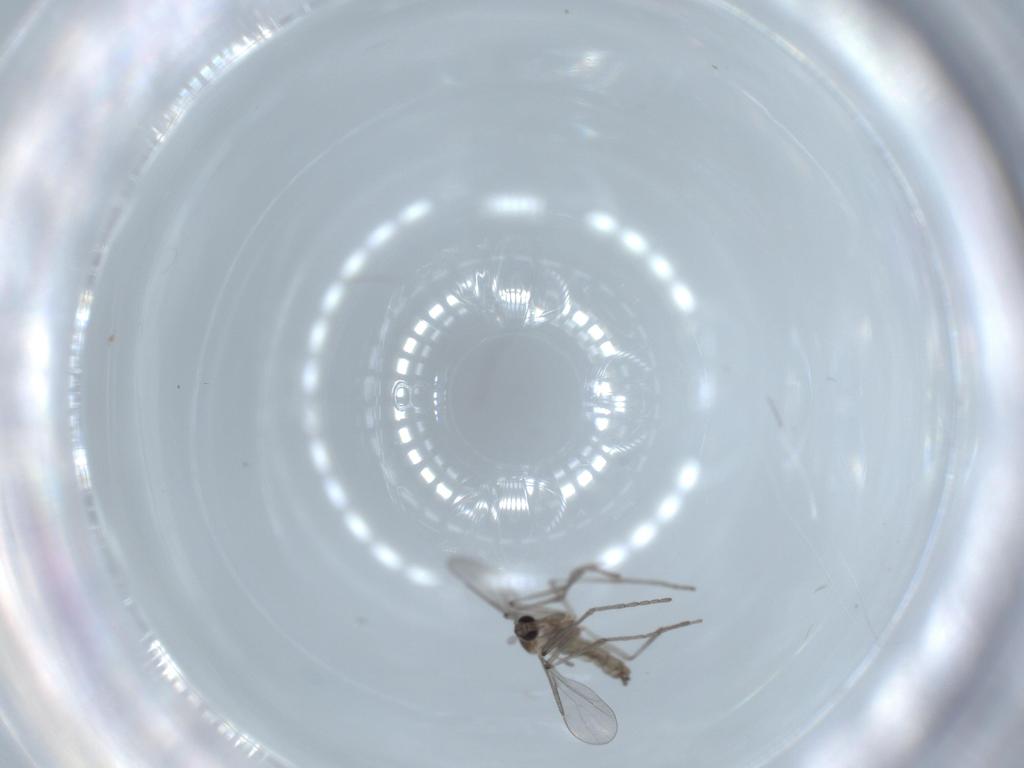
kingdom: Animalia
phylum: Arthropoda
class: Insecta
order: Diptera
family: Cecidomyiidae
